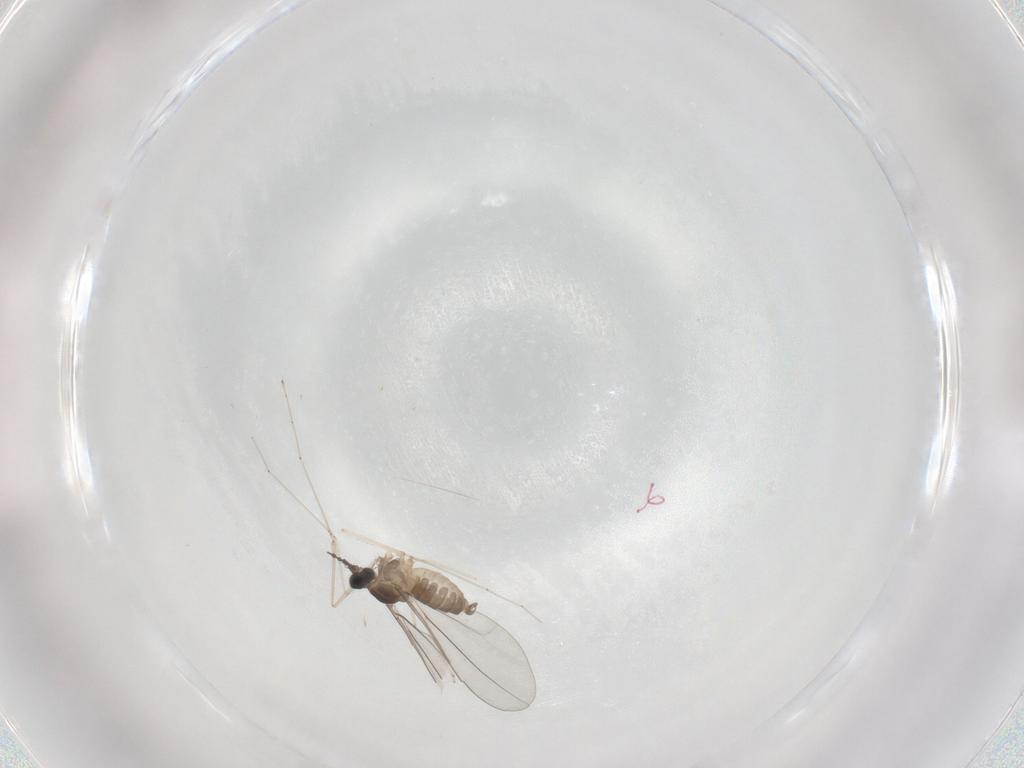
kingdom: Animalia
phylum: Arthropoda
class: Insecta
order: Diptera
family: Cecidomyiidae
